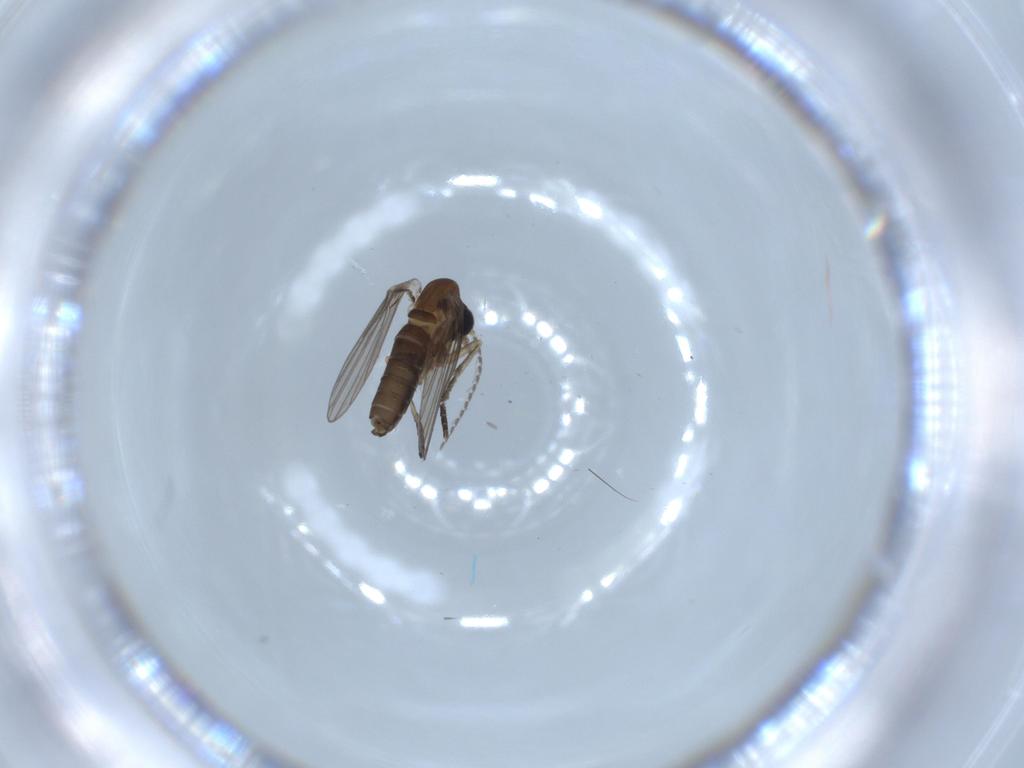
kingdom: Animalia
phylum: Arthropoda
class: Insecta
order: Diptera
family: Psychodidae
